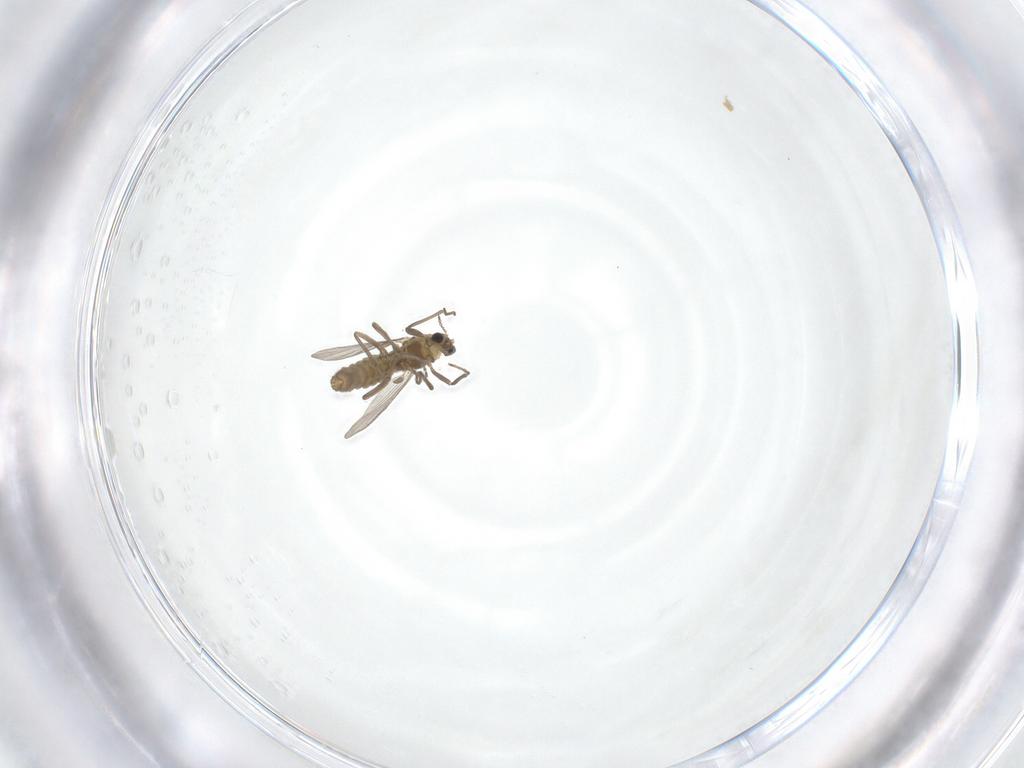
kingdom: Animalia
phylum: Arthropoda
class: Insecta
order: Diptera
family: Chironomidae
